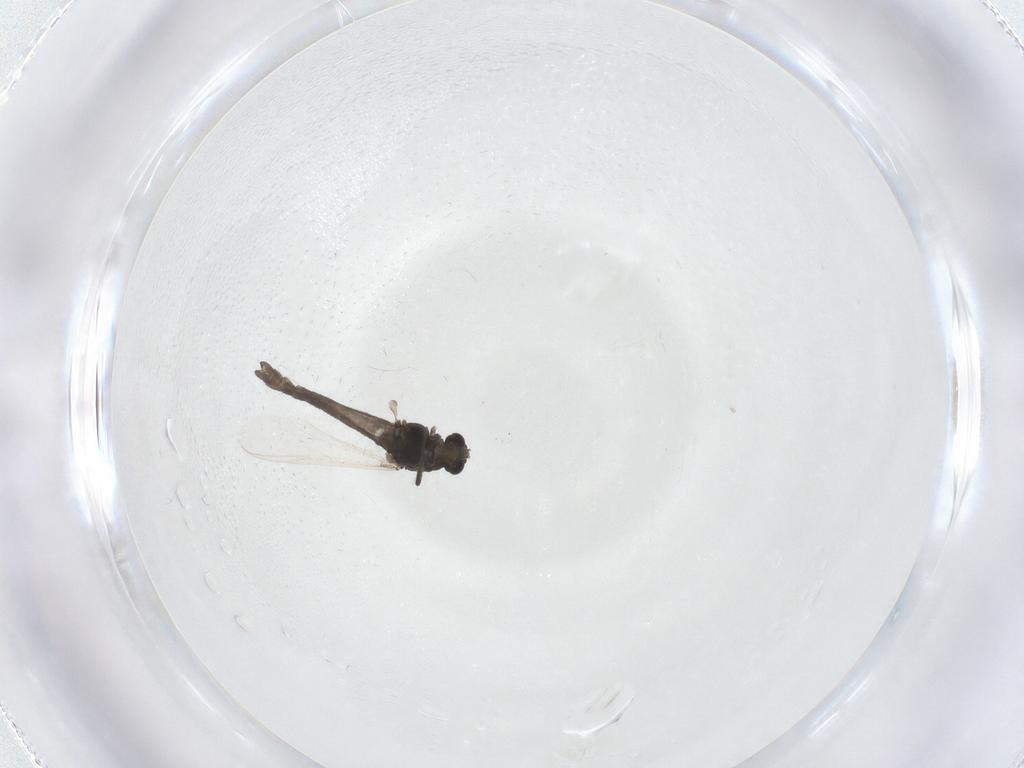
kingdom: Animalia
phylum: Arthropoda
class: Insecta
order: Diptera
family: Chironomidae
